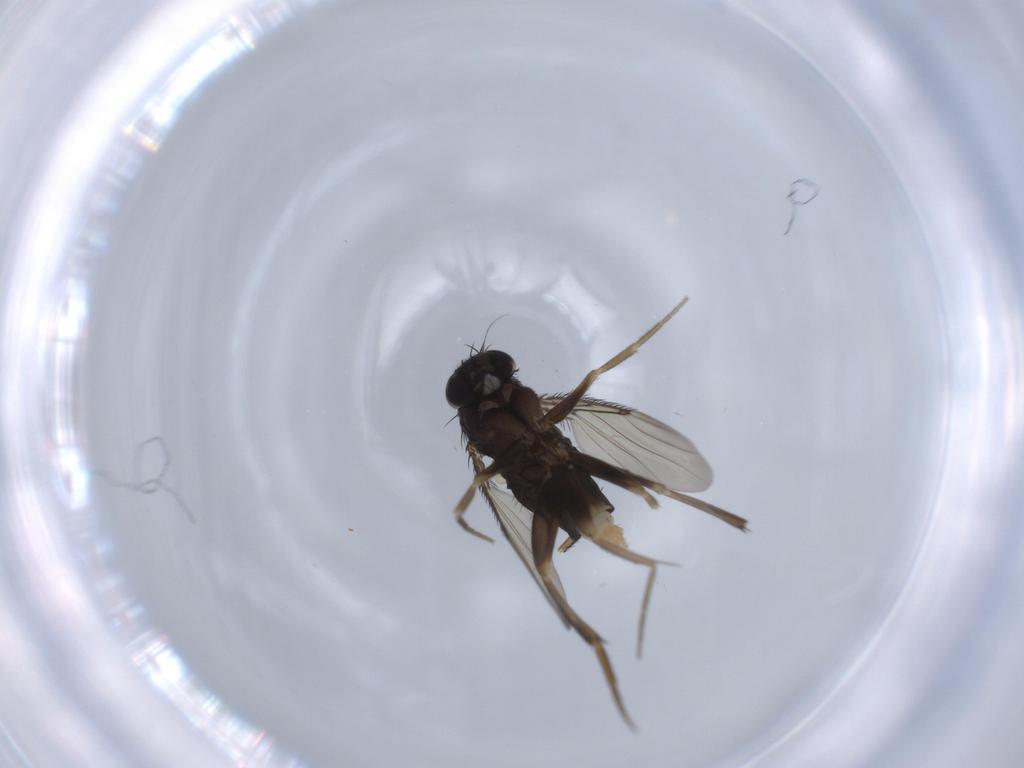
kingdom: Animalia
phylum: Arthropoda
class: Insecta
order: Diptera
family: Phoridae
